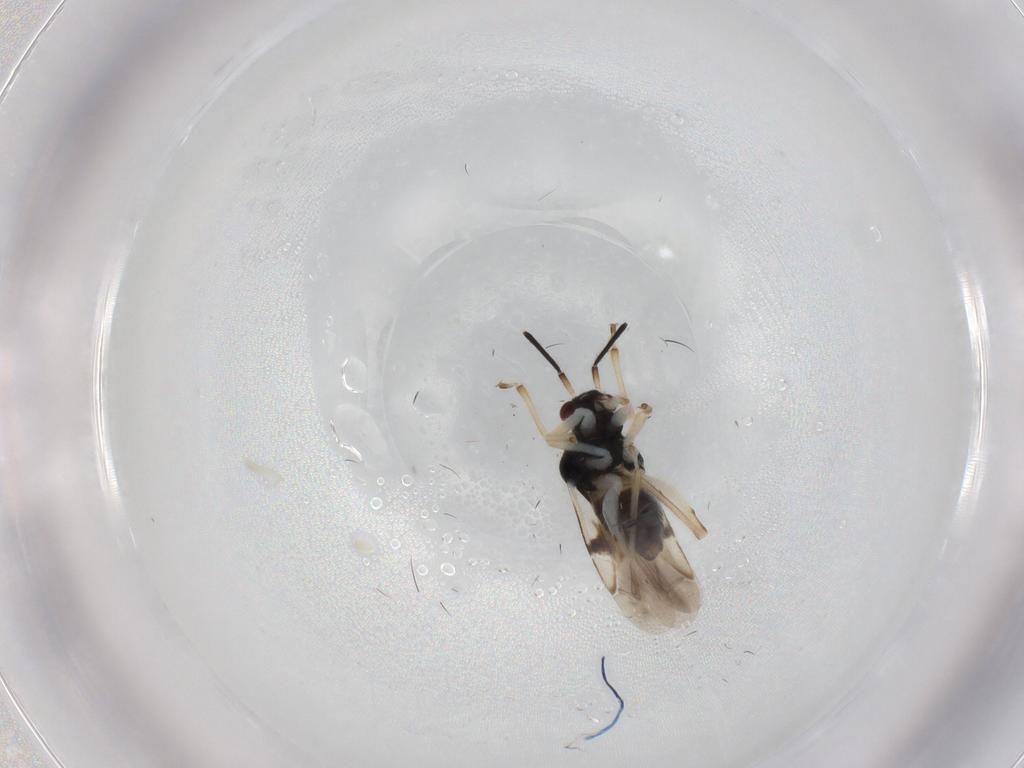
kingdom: Animalia
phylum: Arthropoda
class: Insecta
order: Hemiptera
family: Miridae
